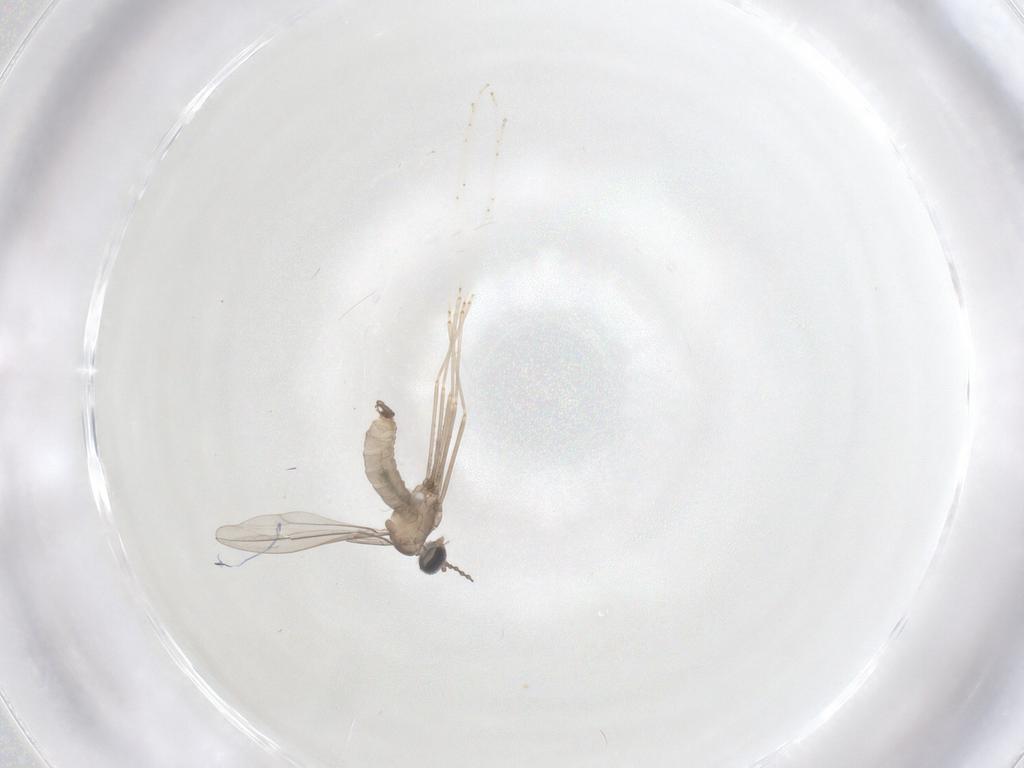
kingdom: Animalia
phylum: Arthropoda
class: Insecta
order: Diptera
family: Cecidomyiidae
